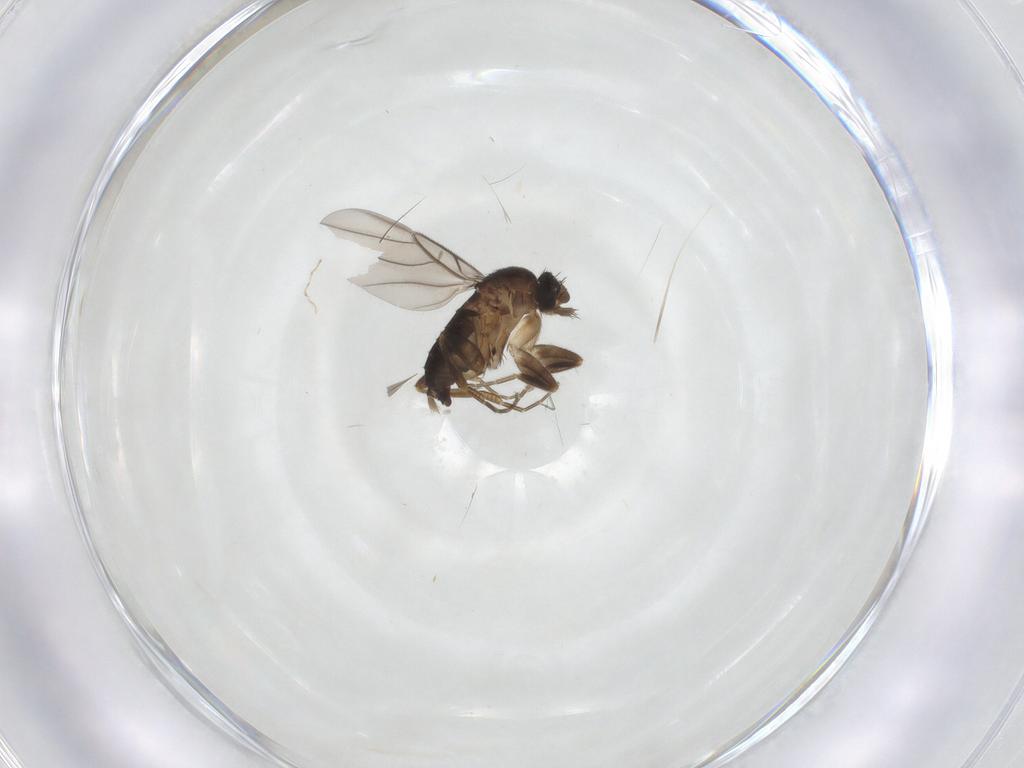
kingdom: Animalia
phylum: Arthropoda
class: Insecta
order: Diptera
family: Phoridae
